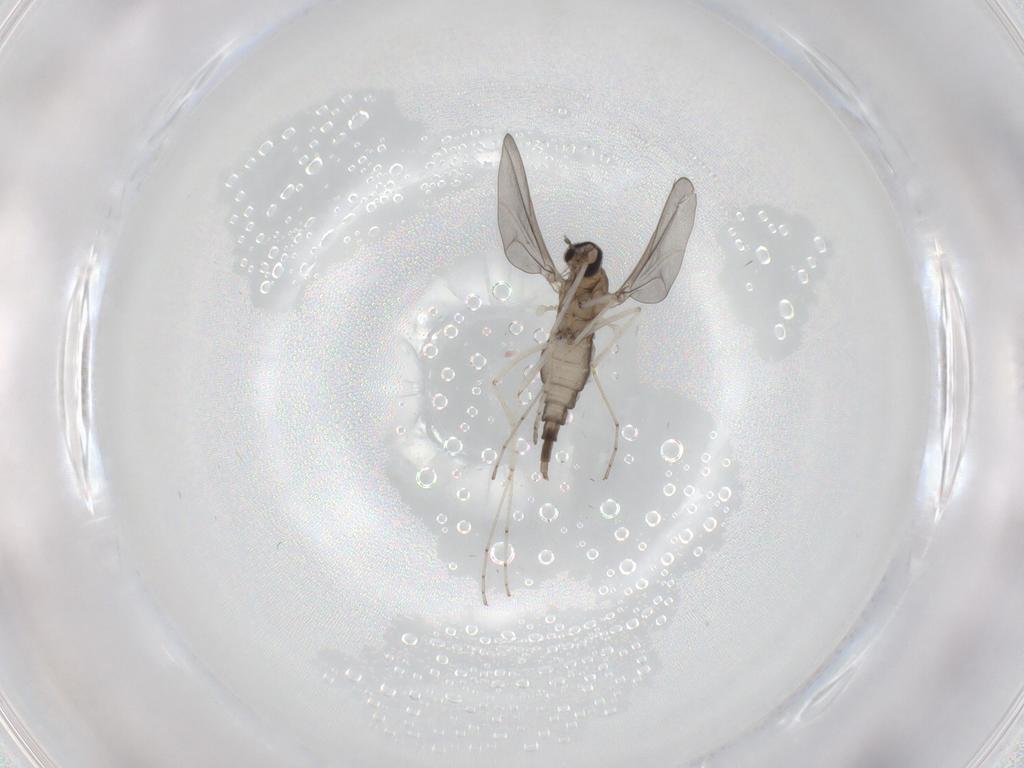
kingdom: Animalia
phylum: Arthropoda
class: Insecta
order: Diptera
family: Cecidomyiidae
